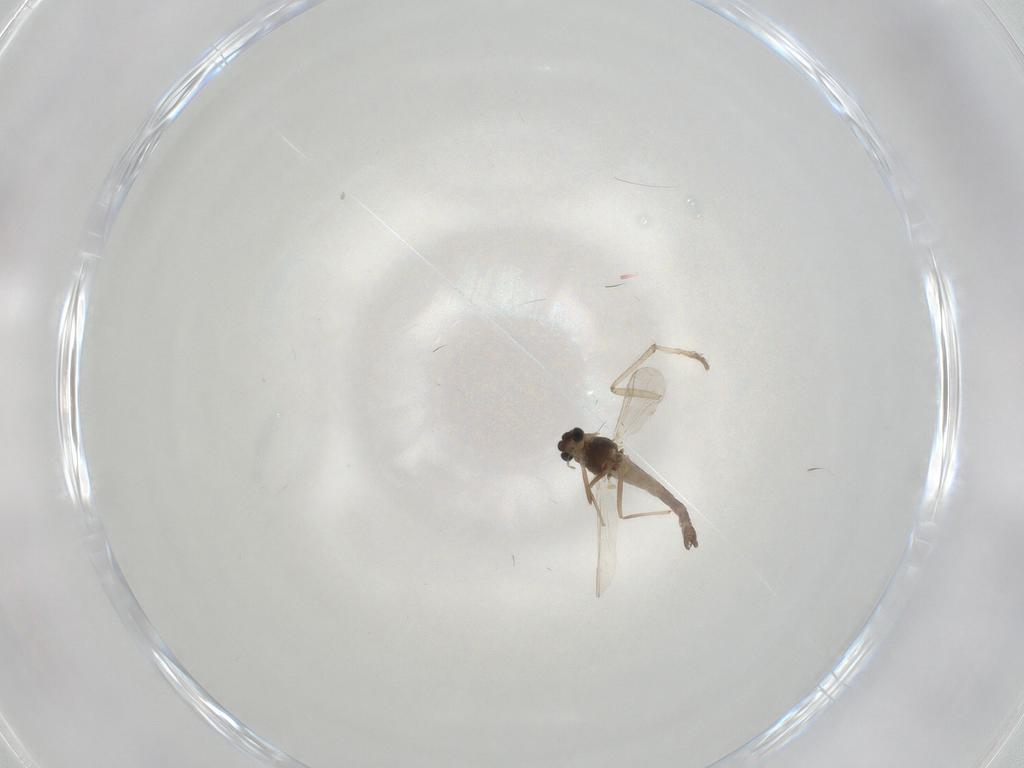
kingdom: Animalia
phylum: Arthropoda
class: Insecta
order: Diptera
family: Chironomidae
